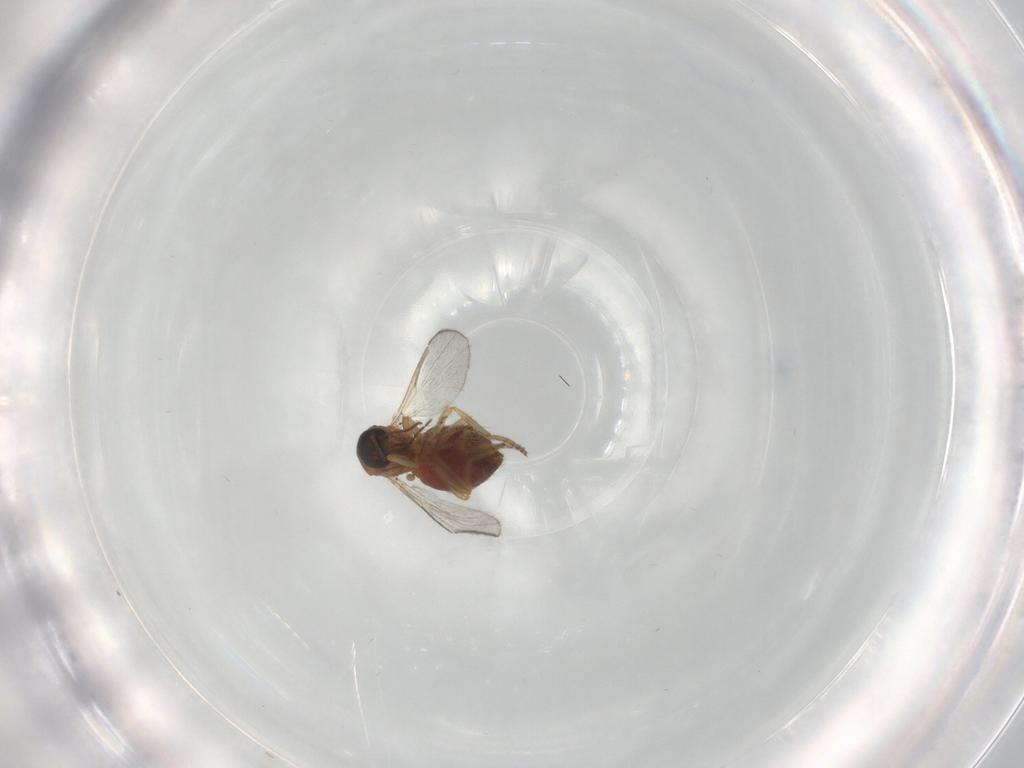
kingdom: Animalia
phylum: Arthropoda
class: Insecta
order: Diptera
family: Ceratopogonidae
